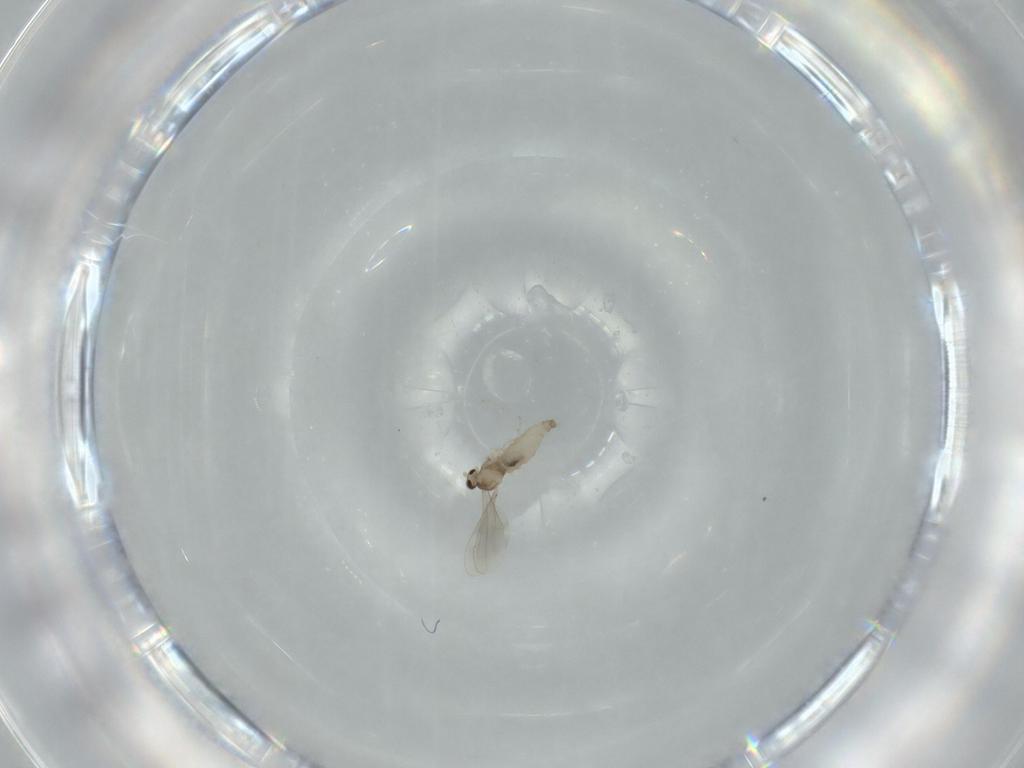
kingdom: Animalia
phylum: Arthropoda
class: Insecta
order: Diptera
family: Cecidomyiidae
